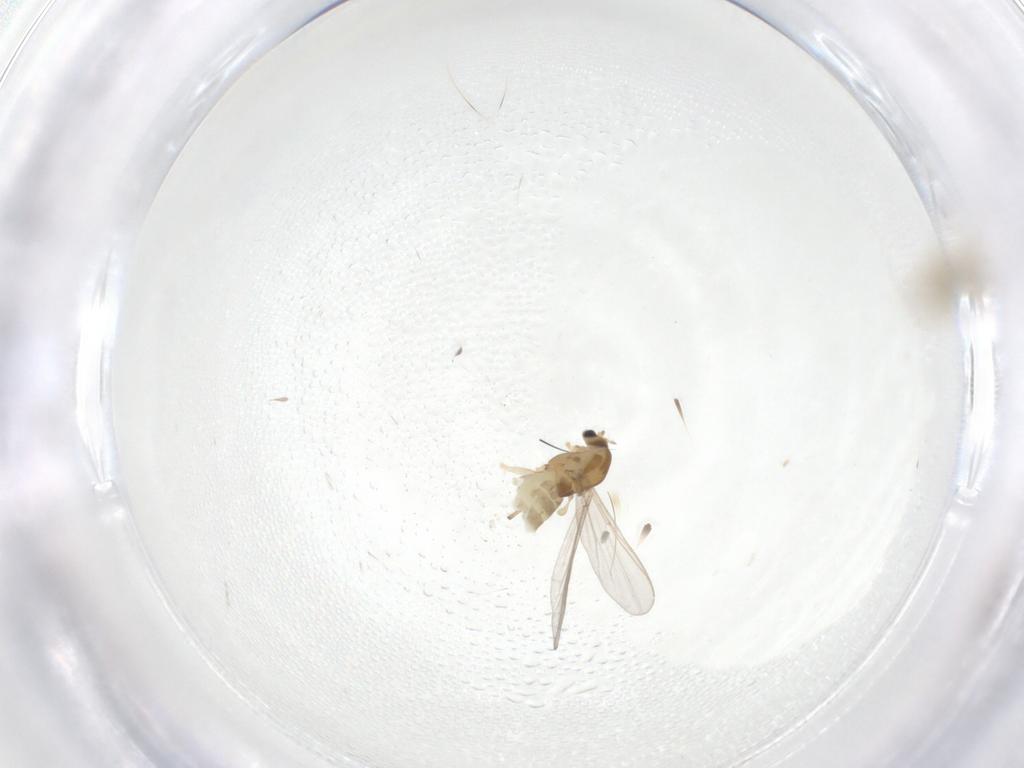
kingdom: Animalia
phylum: Arthropoda
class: Insecta
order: Diptera
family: Chironomidae
